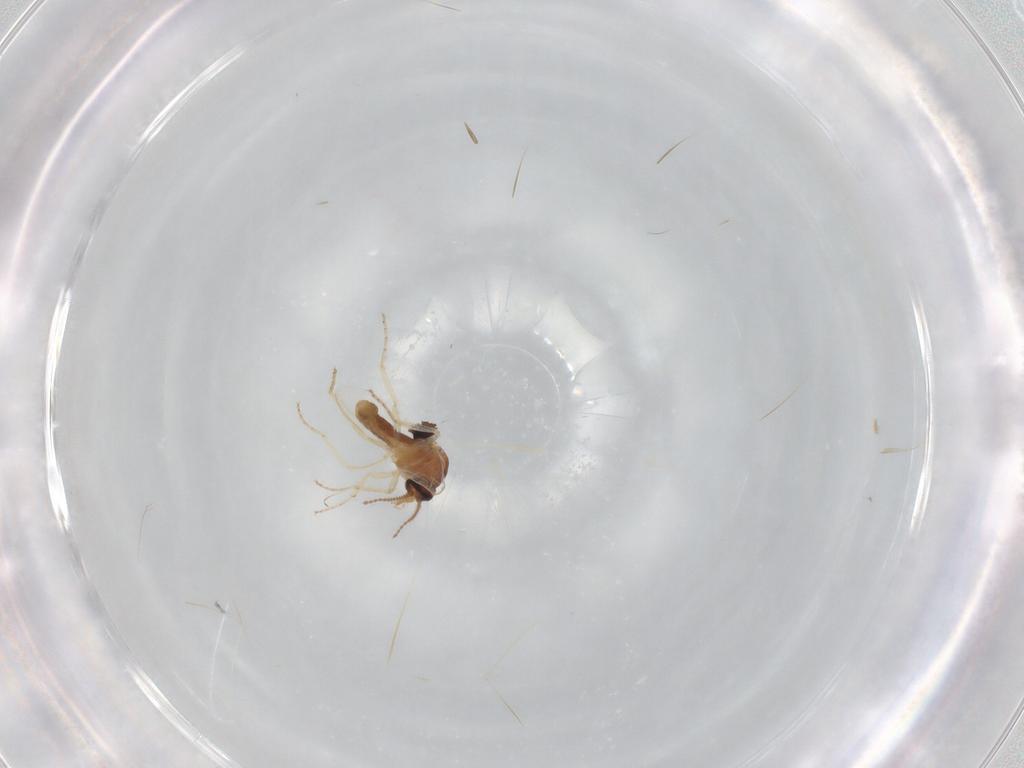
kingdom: Animalia
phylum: Arthropoda
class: Insecta
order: Diptera
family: Ceratopogonidae
